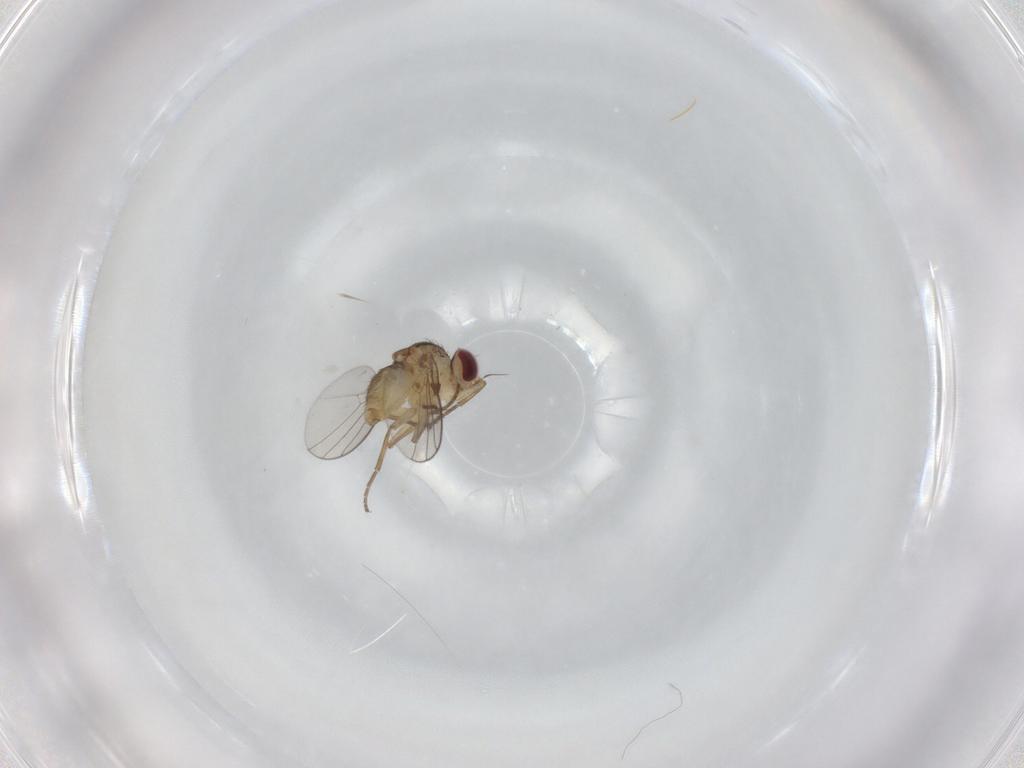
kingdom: Animalia
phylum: Arthropoda
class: Insecta
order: Diptera
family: Agromyzidae
